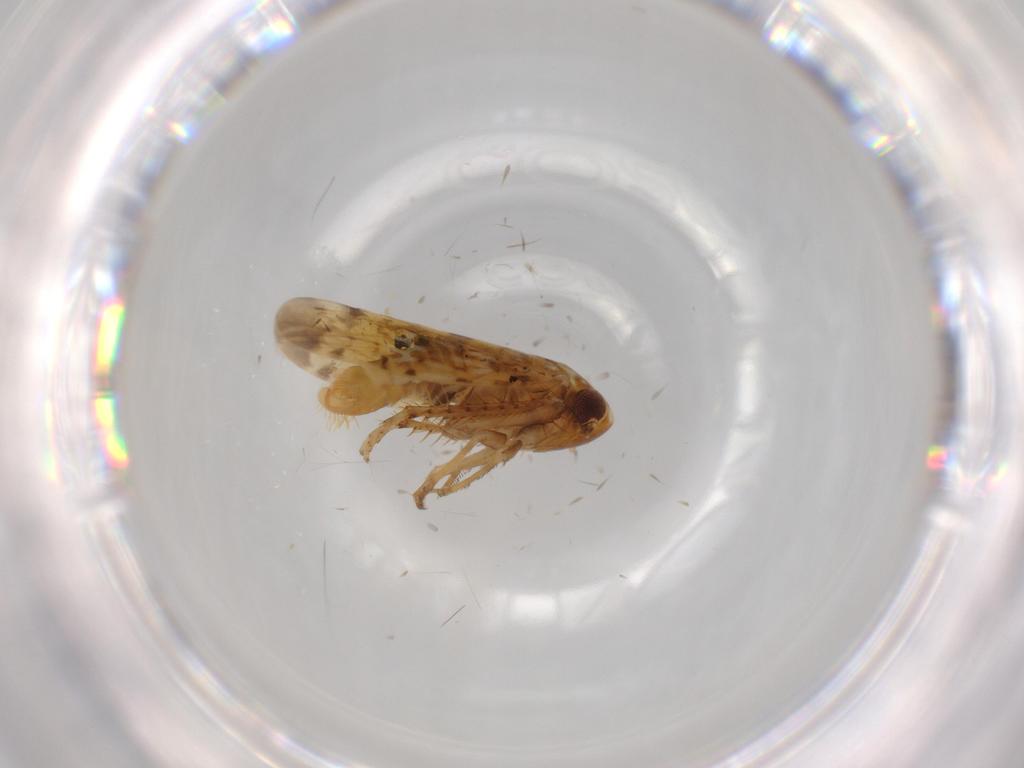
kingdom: Animalia
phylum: Arthropoda
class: Insecta
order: Hemiptera
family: Cicadellidae
